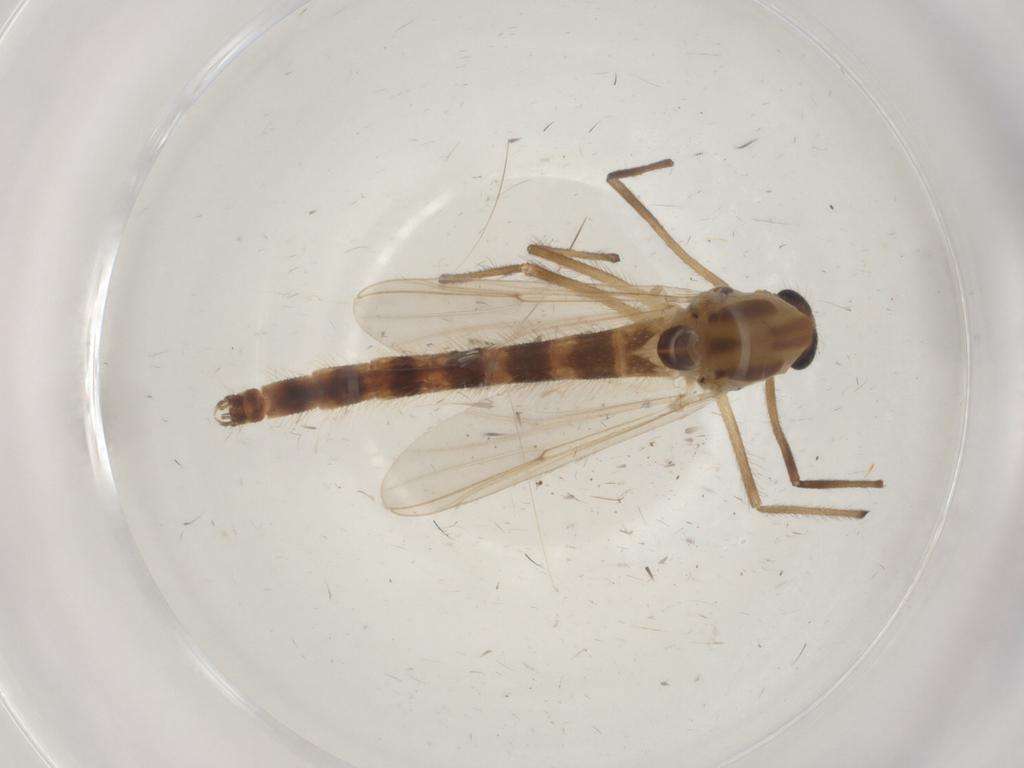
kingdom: Animalia
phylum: Arthropoda
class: Insecta
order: Diptera
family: Chironomidae
